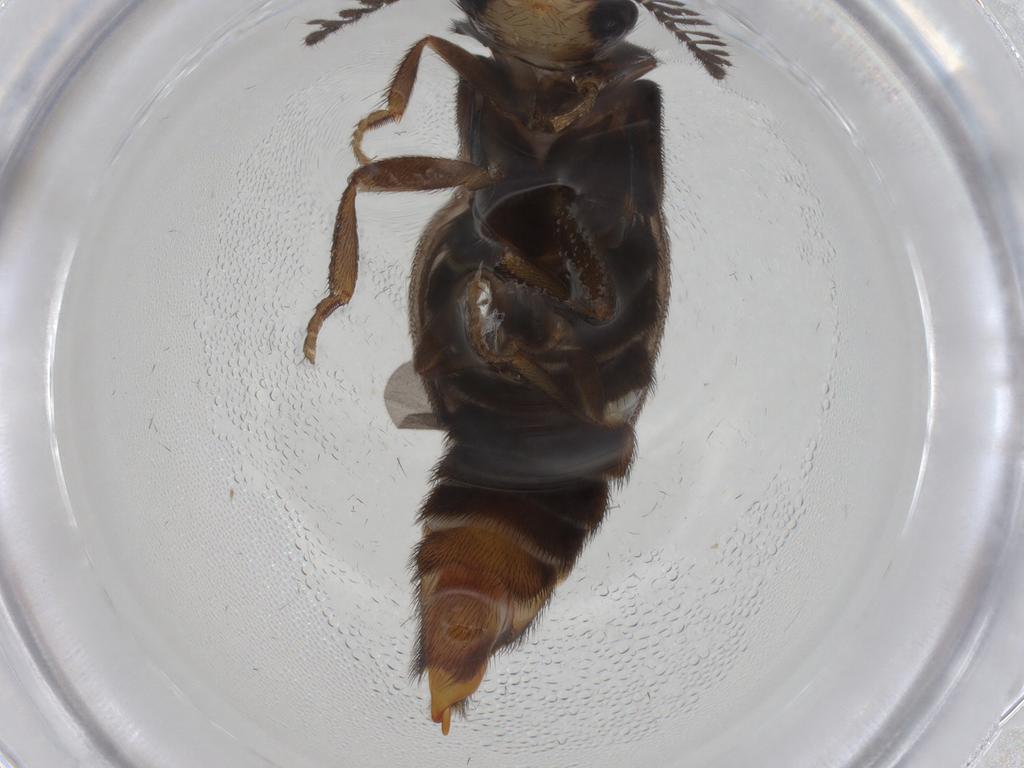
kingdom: Animalia
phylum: Arthropoda
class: Insecta
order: Coleoptera
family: Phengodidae
